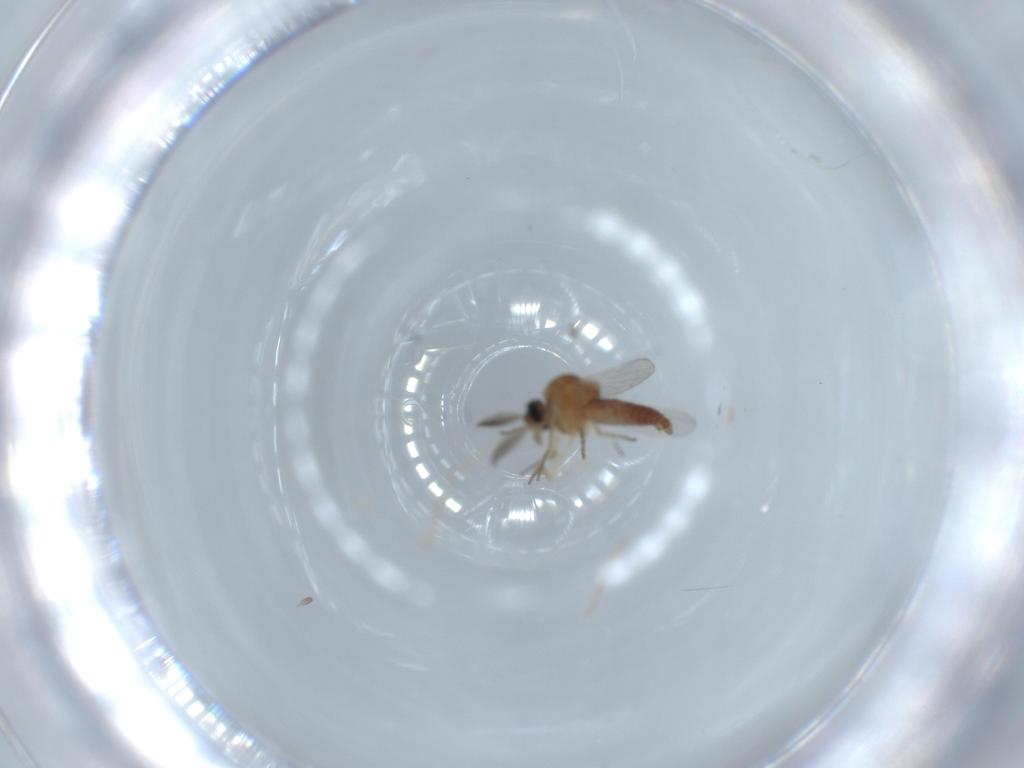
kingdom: Animalia
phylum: Arthropoda
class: Insecta
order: Diptera
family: Ceratopogonidae
